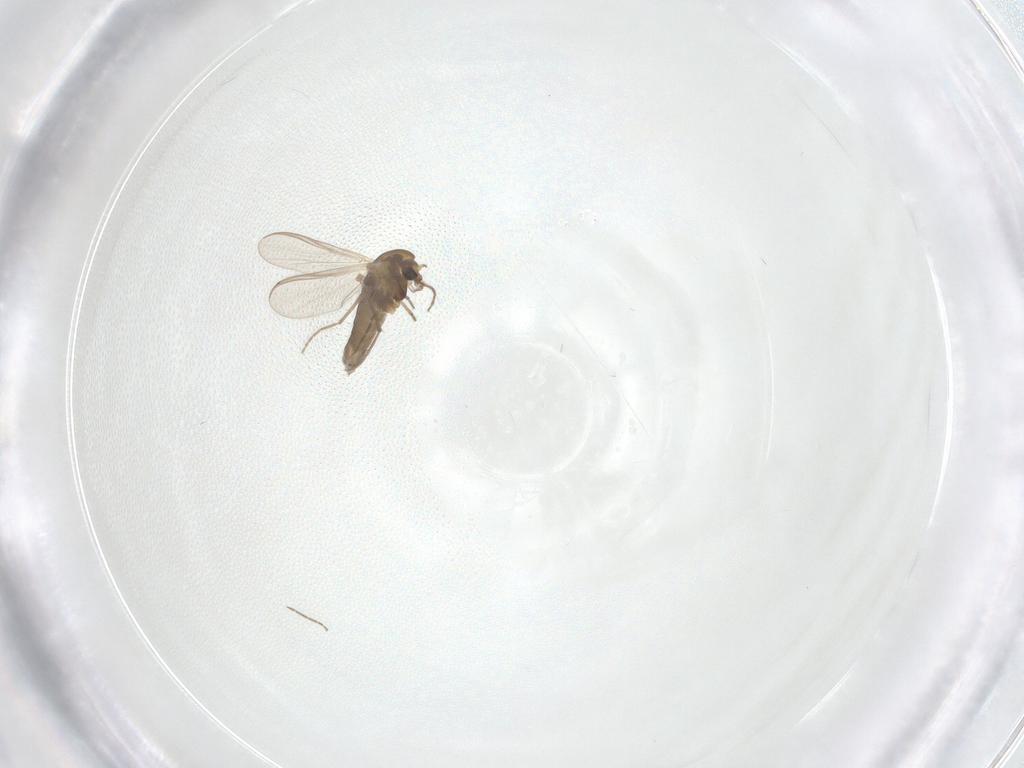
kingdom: Animalia
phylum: Arthropoda
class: Insecta
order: Diptera
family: Chironomidae
